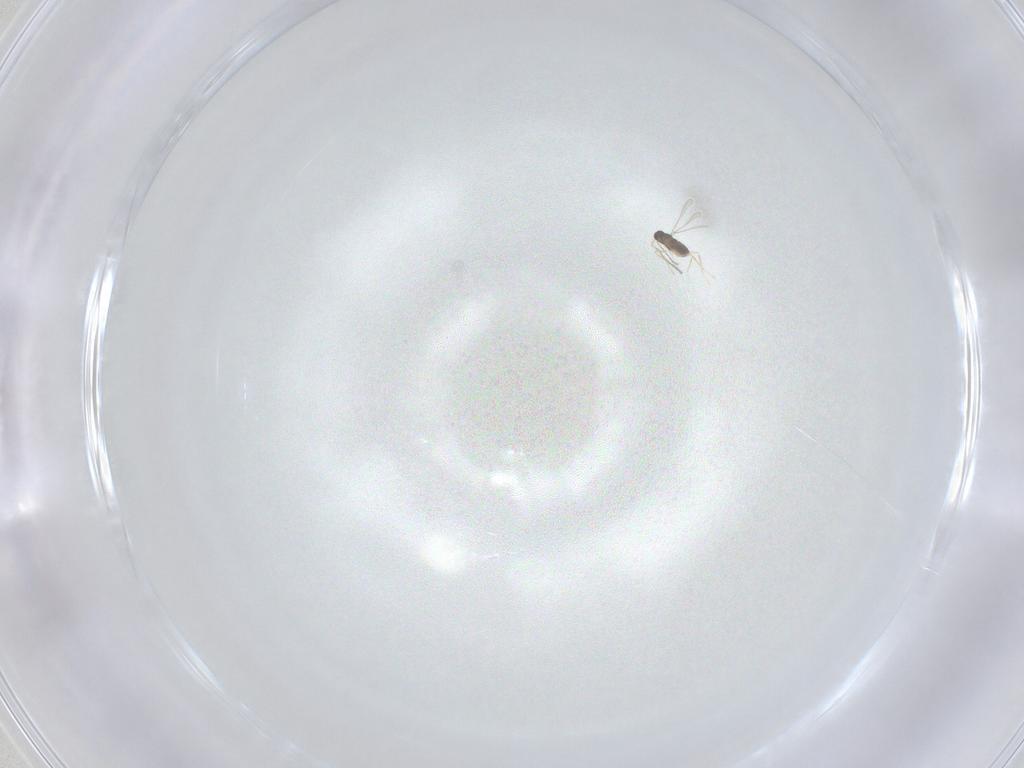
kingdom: Animalia
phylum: Arthropoda
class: Insecta
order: Hymenoptera
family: Mymaridae
